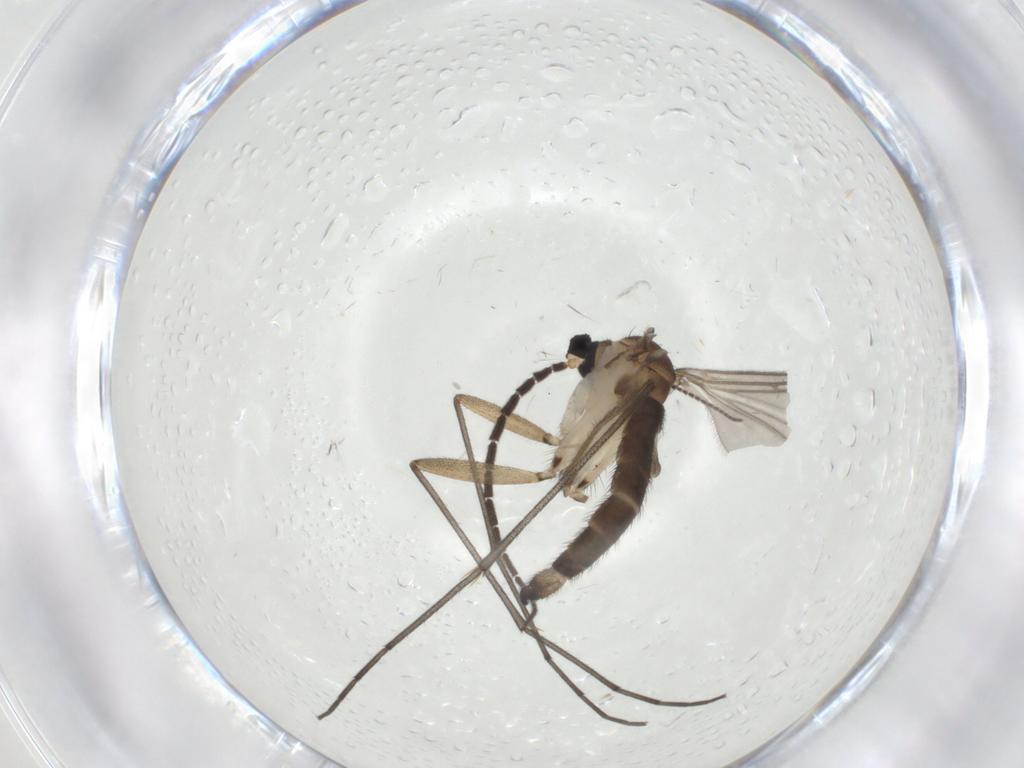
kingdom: Animalia
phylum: Arthropoda
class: Insecta
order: Diptera
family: Sciaridae
